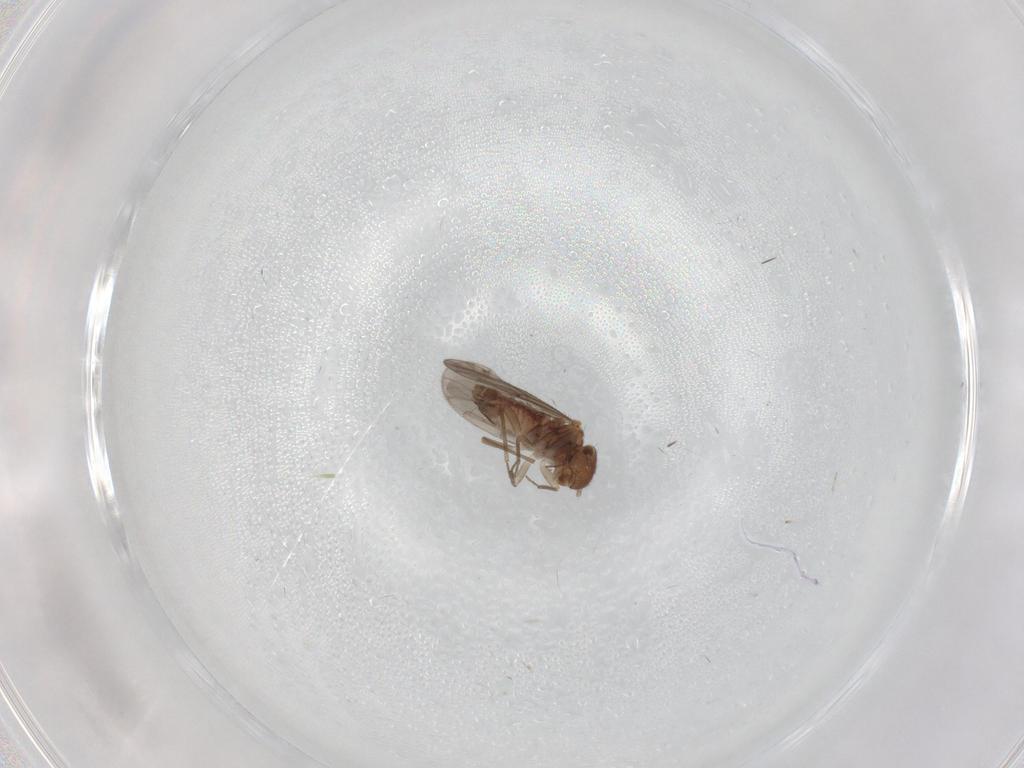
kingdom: Animalia
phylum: Arthropoda
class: Insecta
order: Psocodea
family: Ectopsocidae
